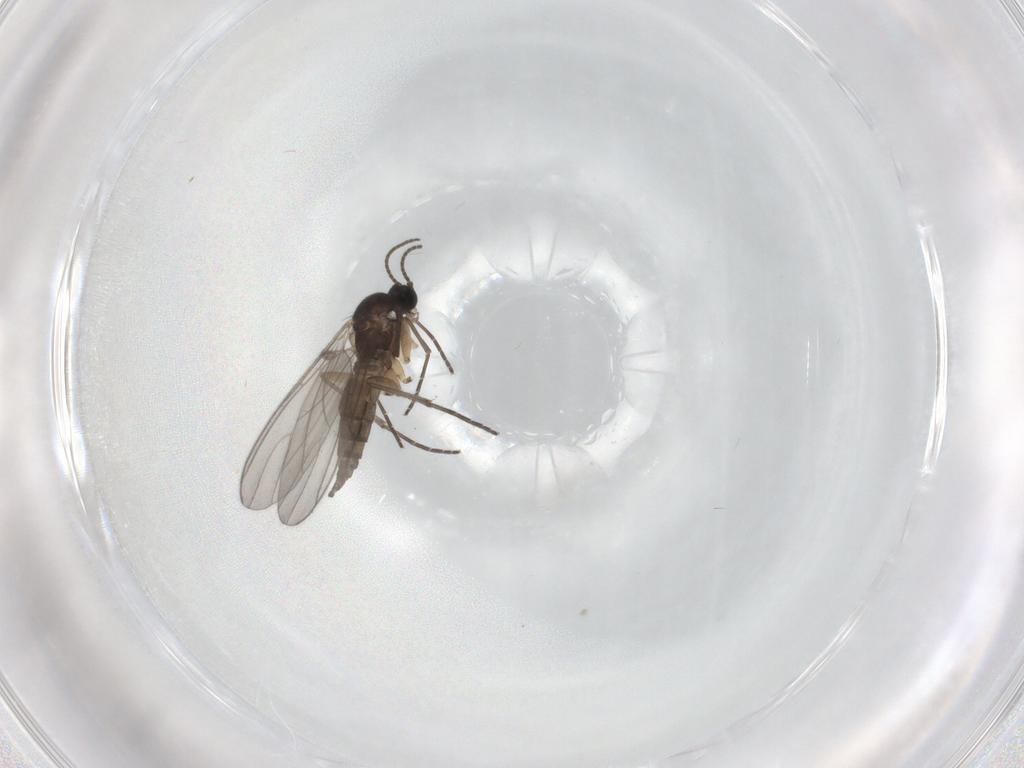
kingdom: Animalia
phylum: Arthropoda
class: Insecta
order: Diptera
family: Sciaridae
